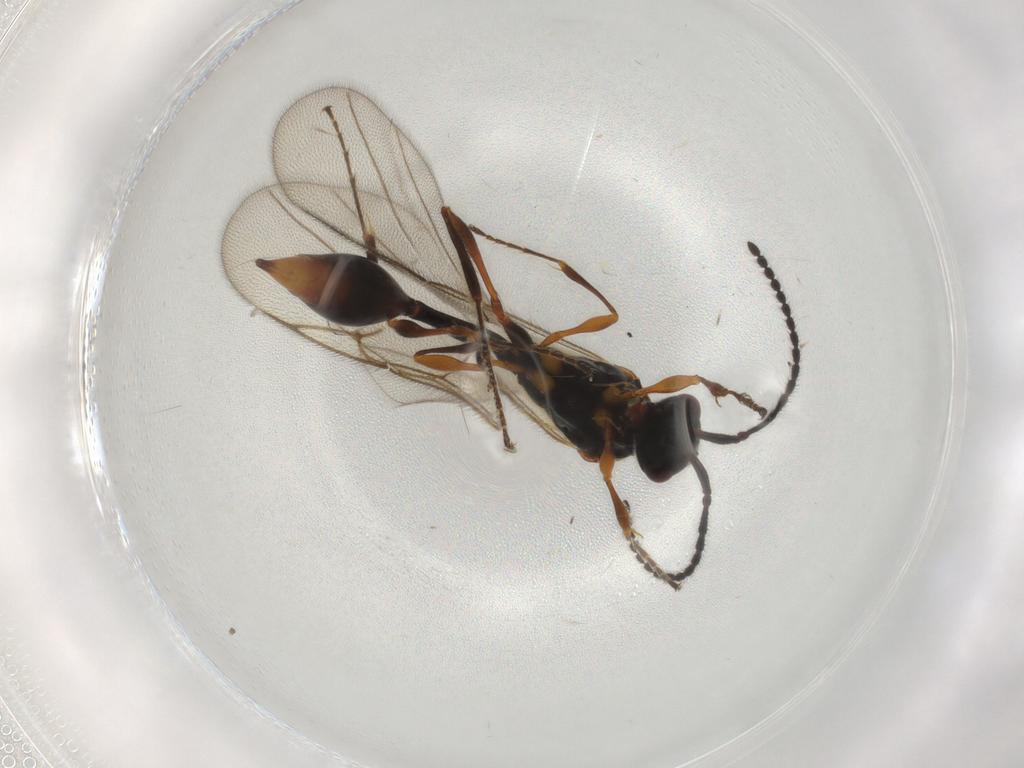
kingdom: Animalia
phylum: Arthropoda
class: Insecta
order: Hymenoptera
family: Diapriidae
